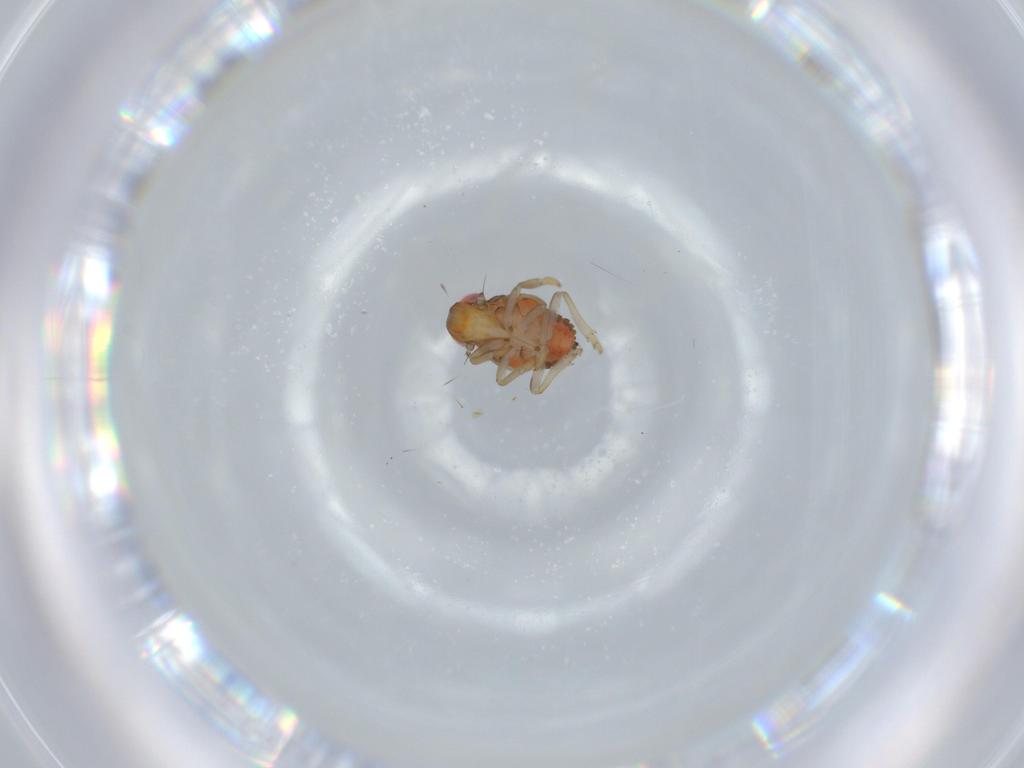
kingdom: Animalia
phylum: Arthropoda
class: Insecta
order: Hemiptera
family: Issidae
